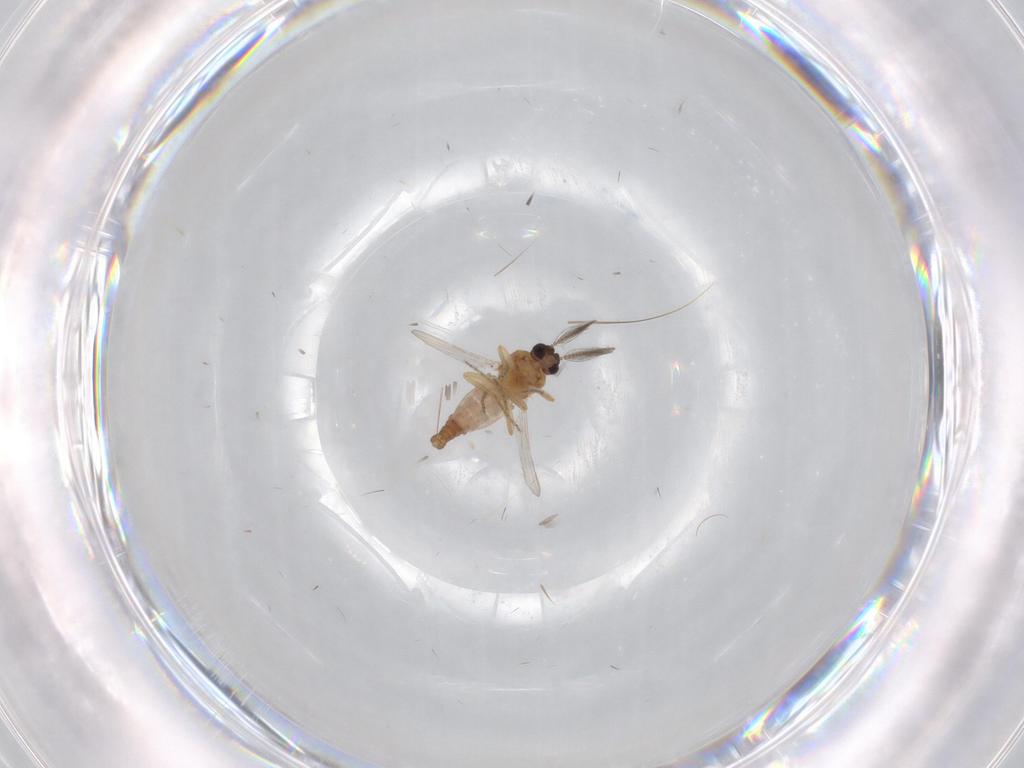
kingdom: Animalia
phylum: Arthropoda
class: Insecta
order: Diptera
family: Ceratopogonidae
